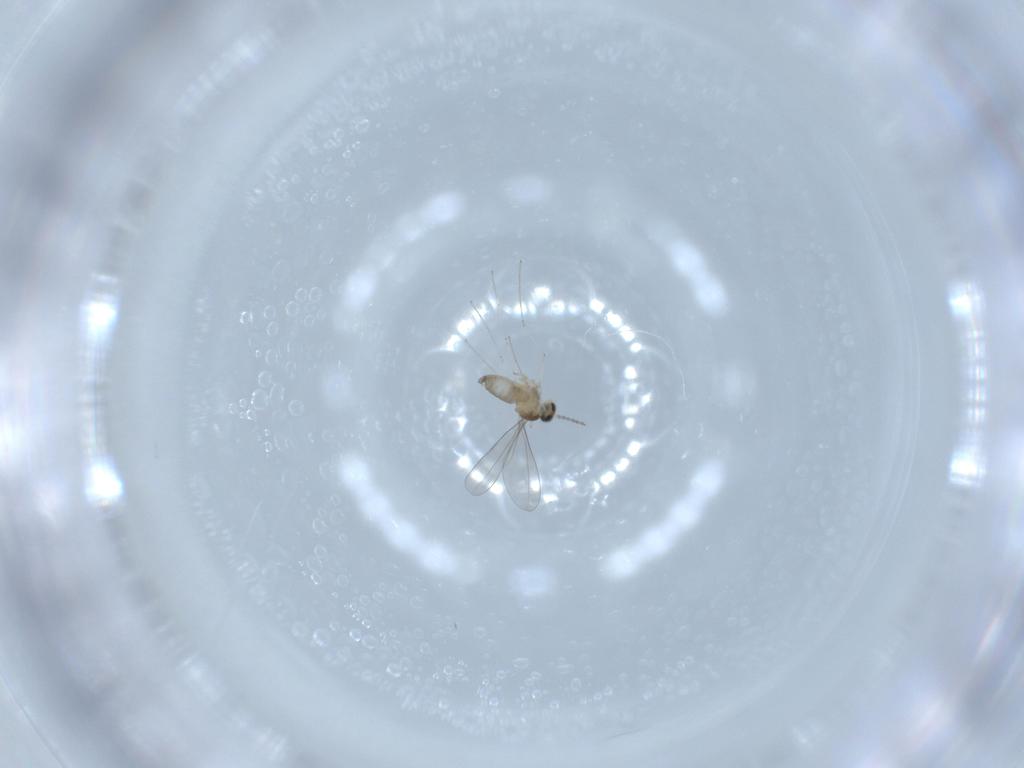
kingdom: Animalia
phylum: Arthropoda
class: Insecta
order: Diptera
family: Cecidomyiidae
